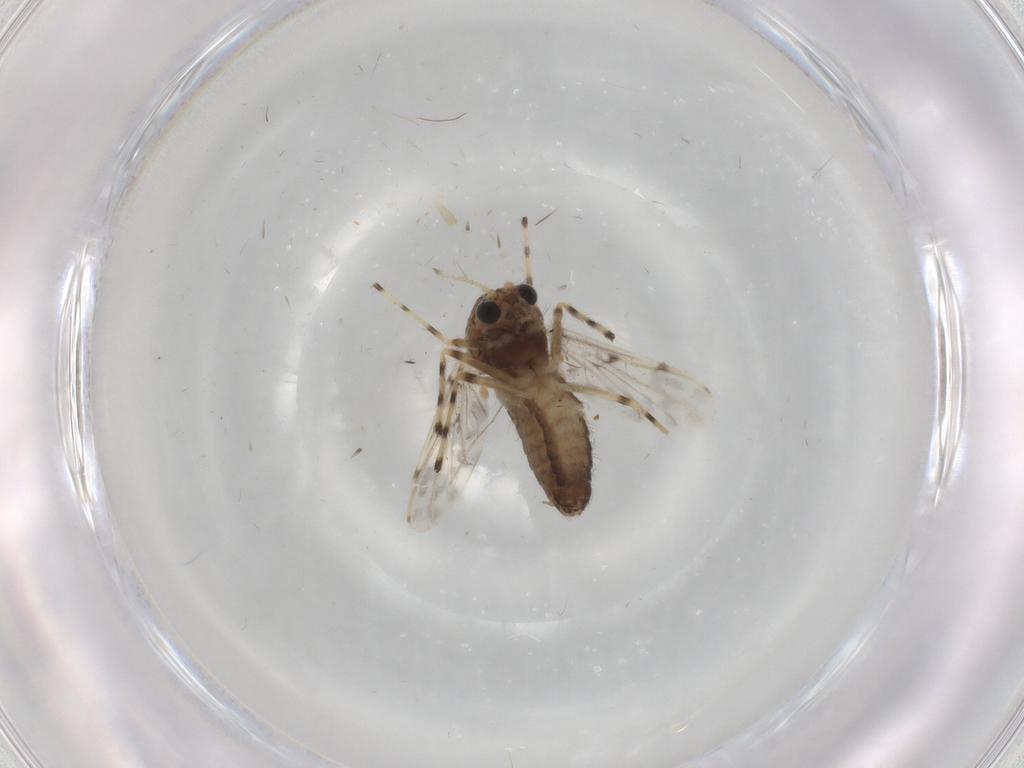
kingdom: Animalia
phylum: Arthropoda
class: Insecta
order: Diptera
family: Chironomidae
